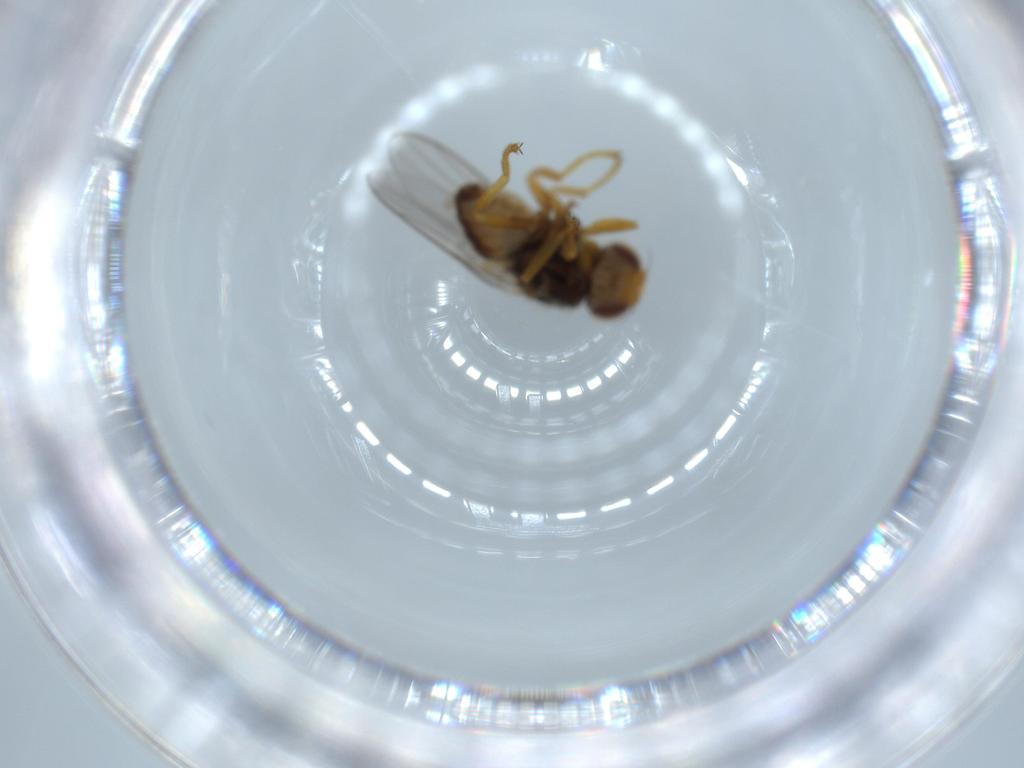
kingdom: Animalia
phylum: Arthropoda
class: Insecta
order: Diptera
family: Chloropidae
